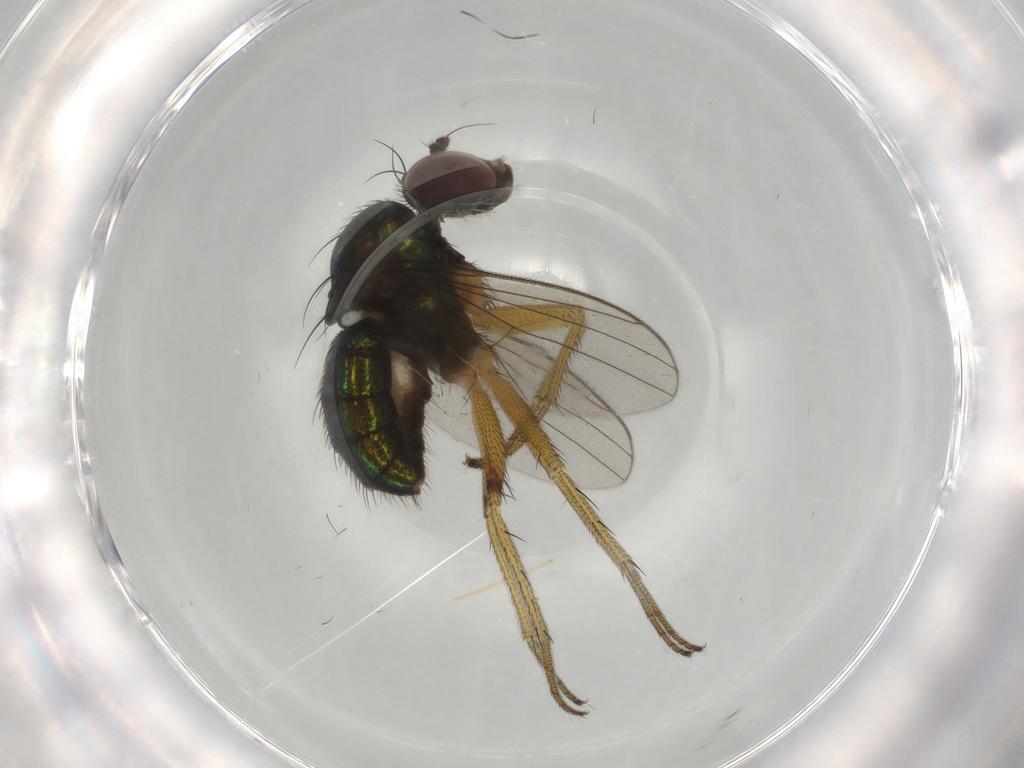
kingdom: Animalia
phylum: Arthropoda
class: Insecta
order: Diptera
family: Dolichopodidae
